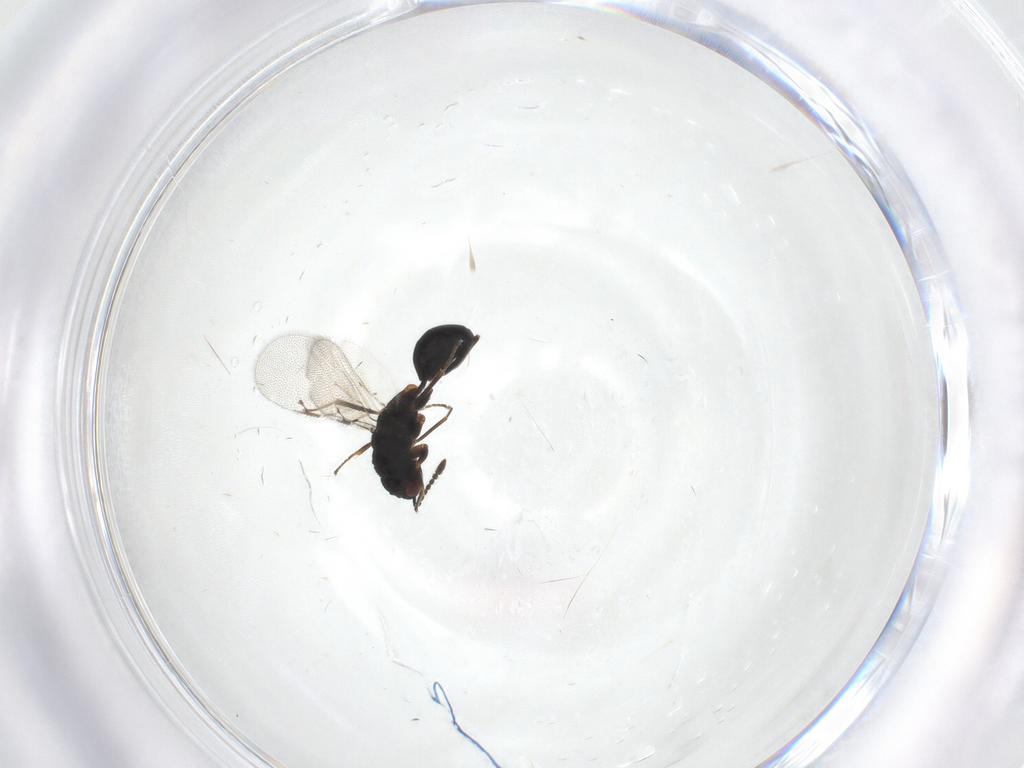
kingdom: Animalia
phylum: Arthropoda
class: Insecta
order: Hymenoptera
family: Eurytomidae
